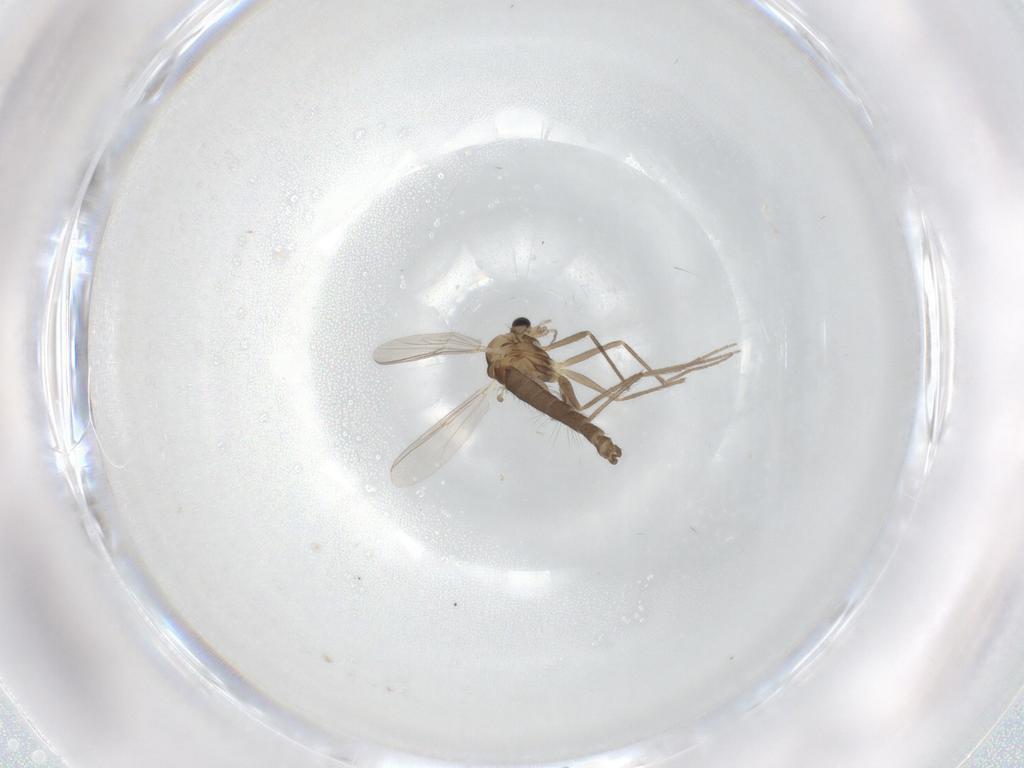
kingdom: Animalia
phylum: Arthropoda
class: Insecta
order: Diptera
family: Chironomidae
